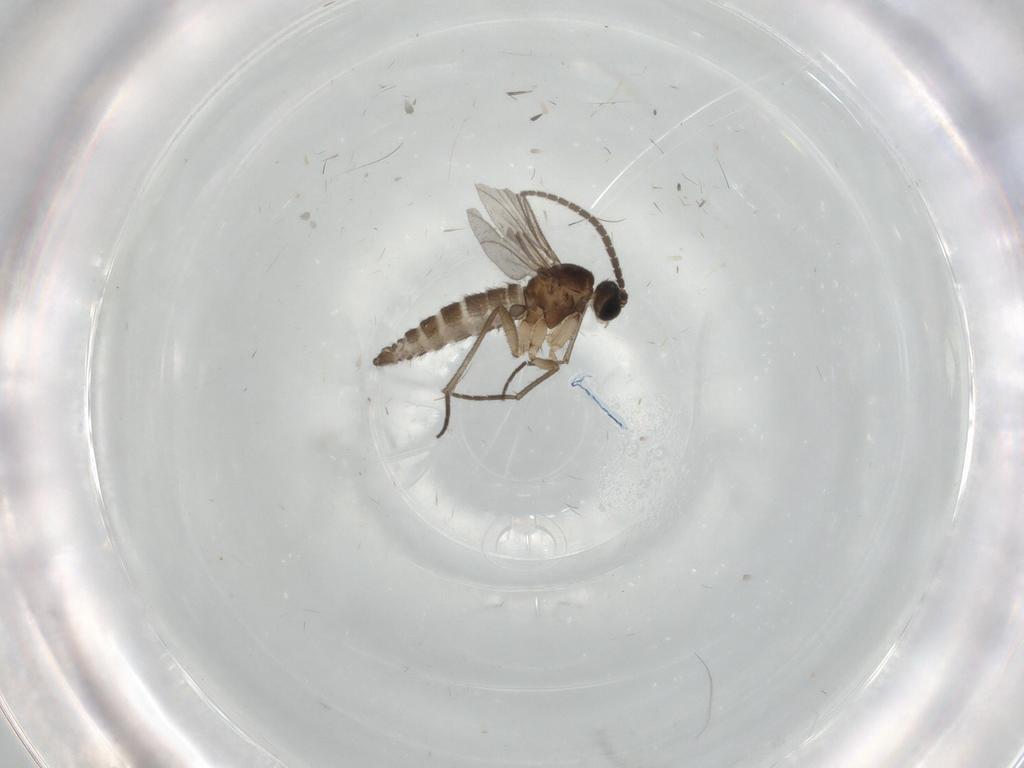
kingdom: Animalia
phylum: Arthropoda
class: Insecta
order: Diptera
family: Sciaridae
